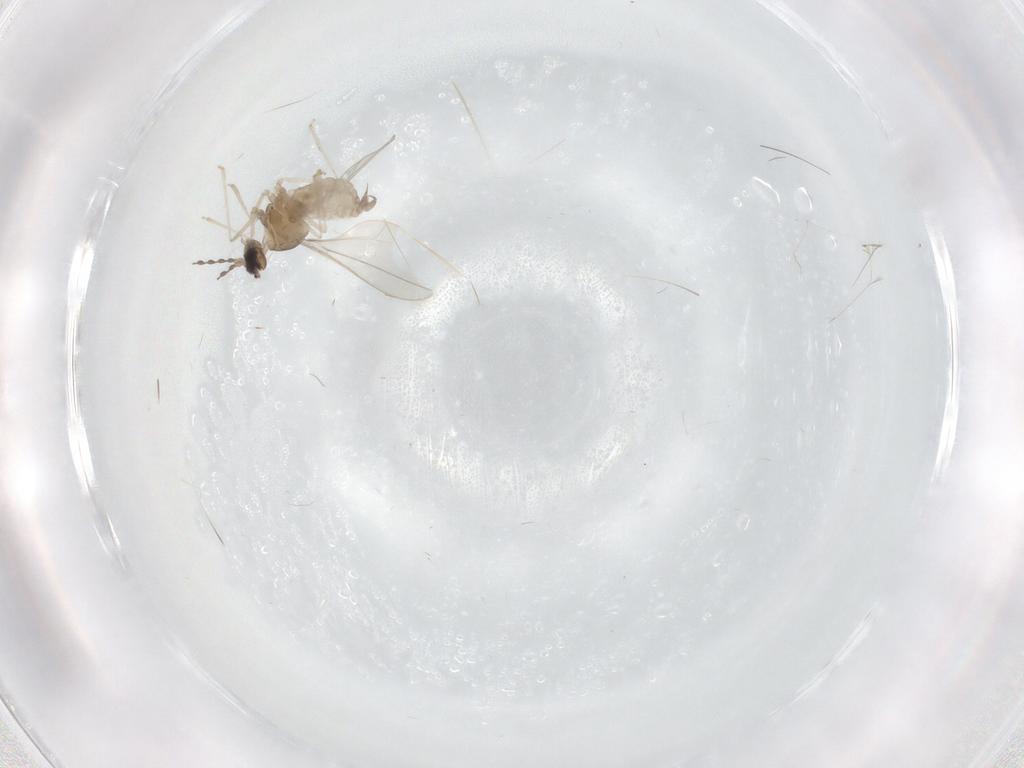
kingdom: Animalia
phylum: Arthropoda
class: Insecta
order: Diptera
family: Cecidomyiidae
